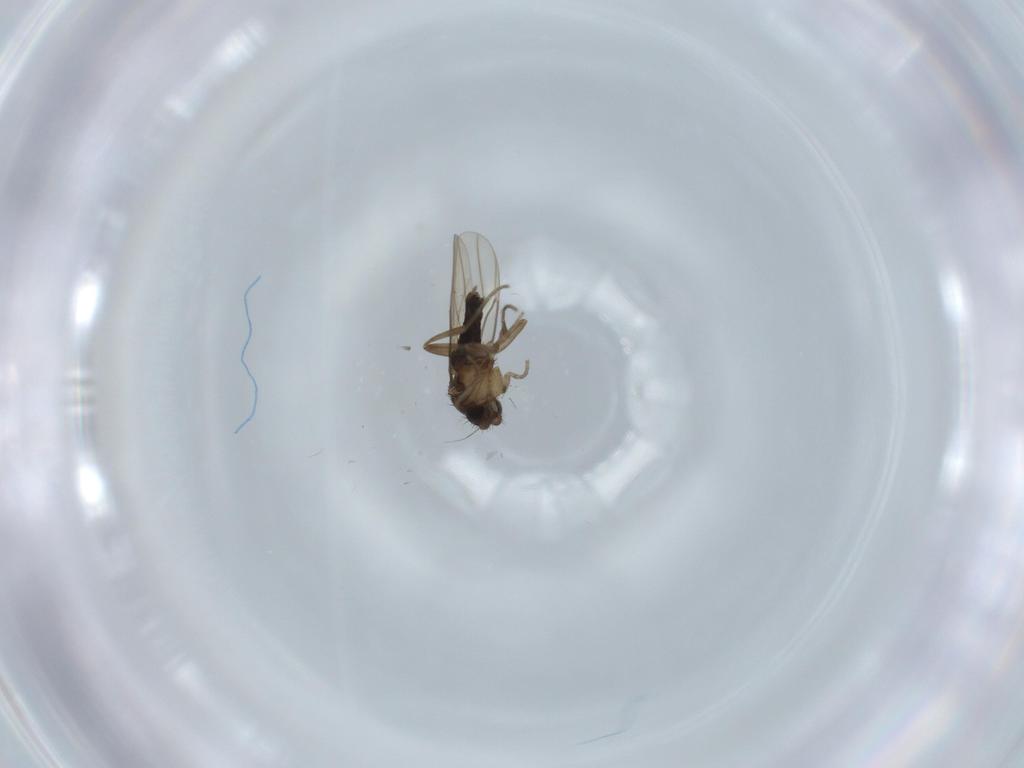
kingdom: Animalia
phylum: Arthropoda
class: Insecta
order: Diptera
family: Phoridae
